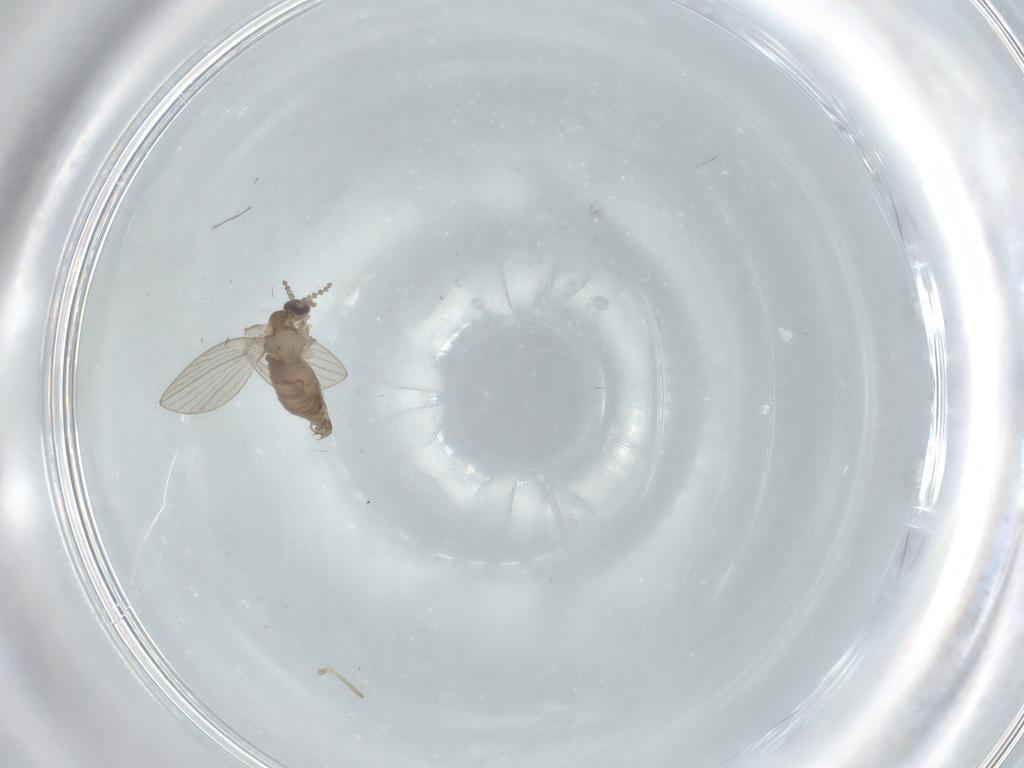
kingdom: Animalia
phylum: Arthropoda
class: Insecta
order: Diptera
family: Psychodidae
